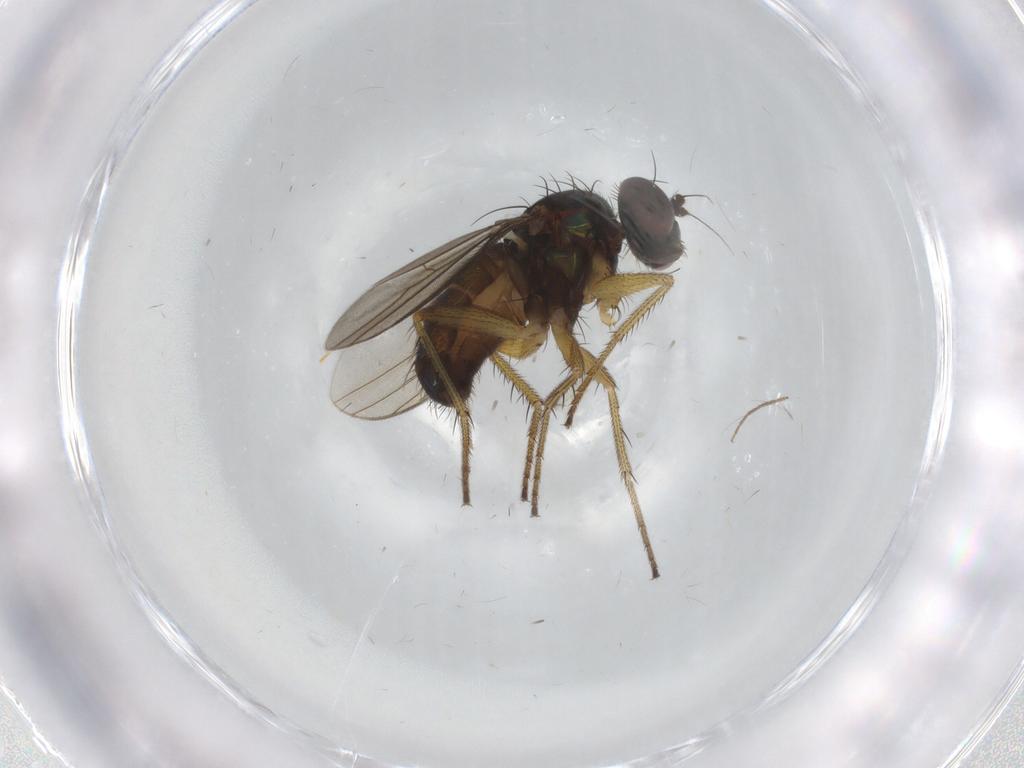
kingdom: Animalia
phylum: Arthropoda
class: Insecta
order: Diptera
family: Dolichopodidae
